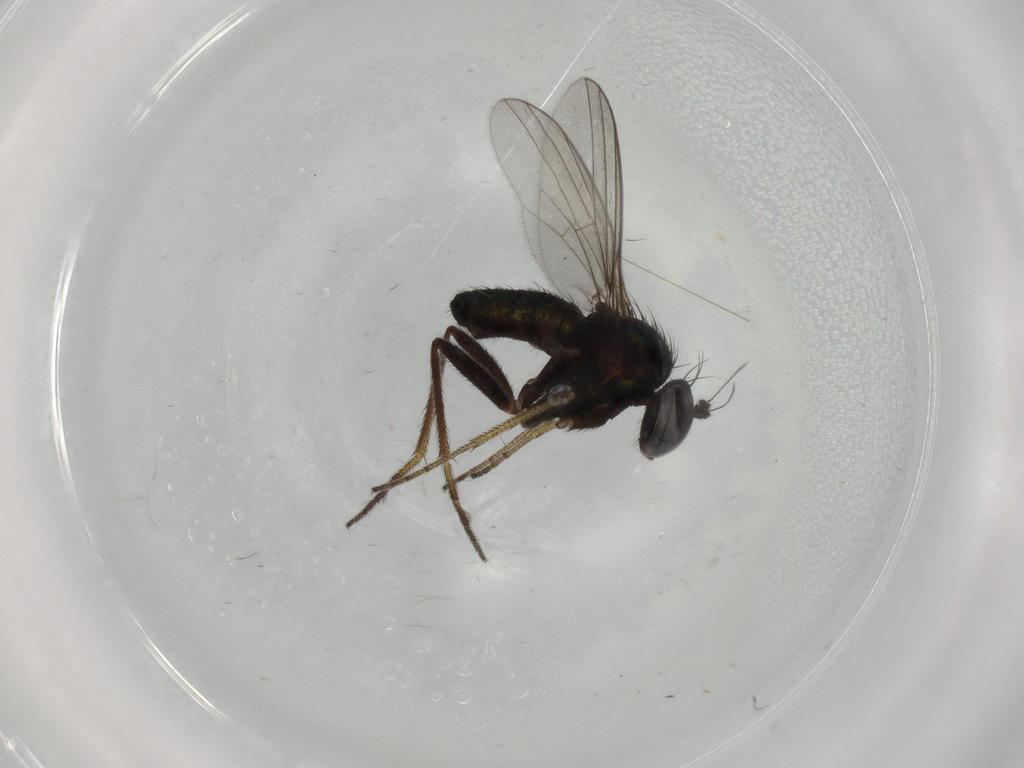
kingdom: Animalia
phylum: Arthropoda
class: Insecta
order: Diptera
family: Dolichopodidae
